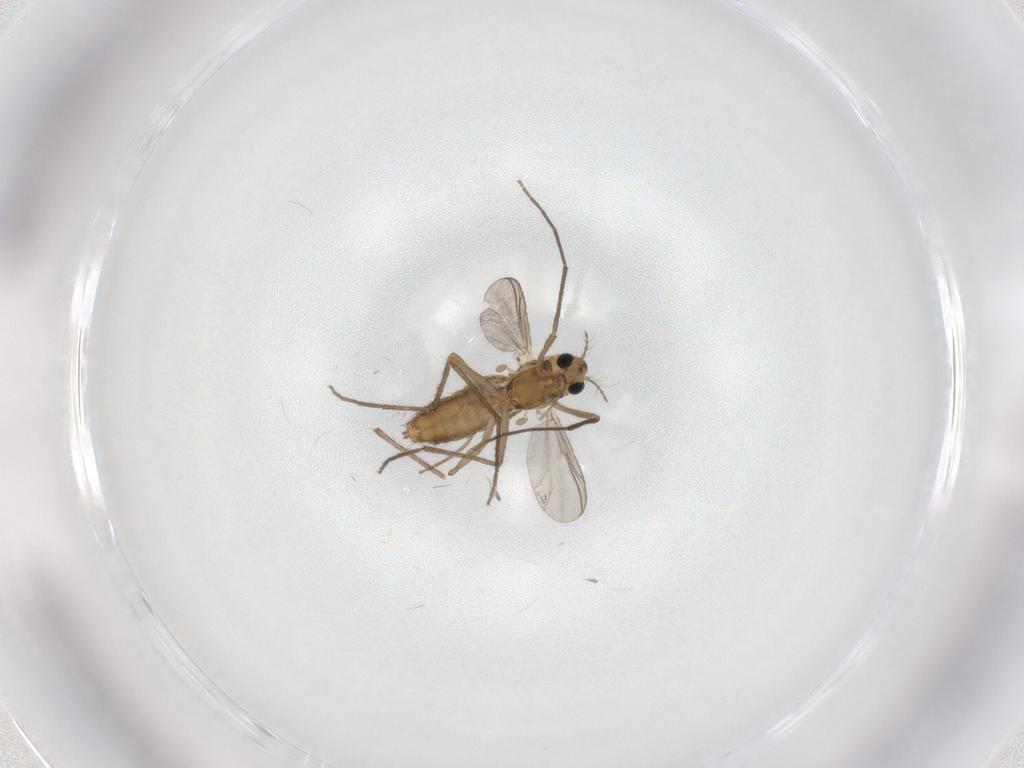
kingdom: Animalia
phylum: Arthropoda
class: Insecta
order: Diptera
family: Chironomidae
